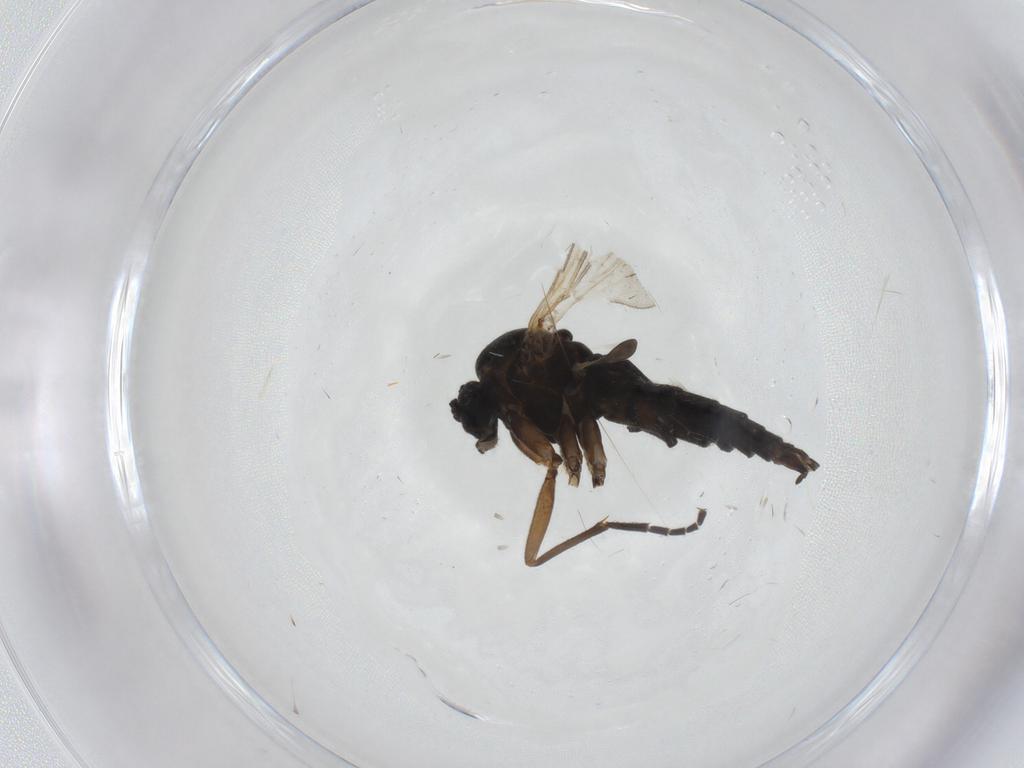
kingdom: Animalia
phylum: Arthropoda
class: Insecta
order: Diptera
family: Sciaridae
